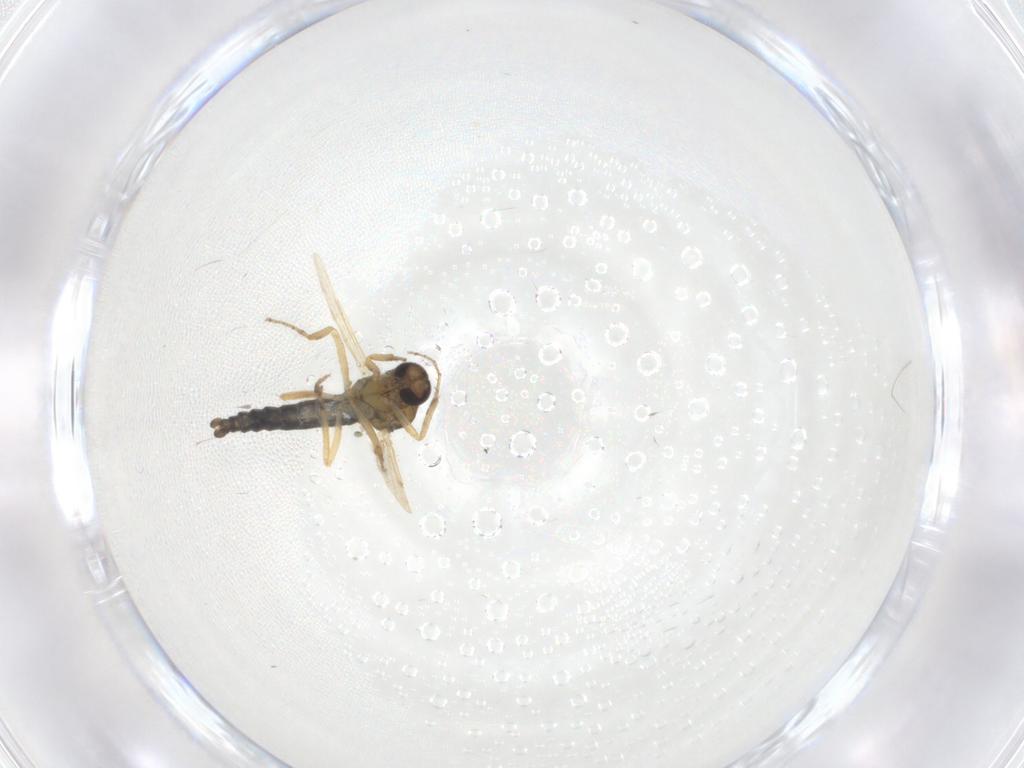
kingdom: Animalia
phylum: Arthropoda
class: Insecta
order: Diptera
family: Ceratopogonidae
